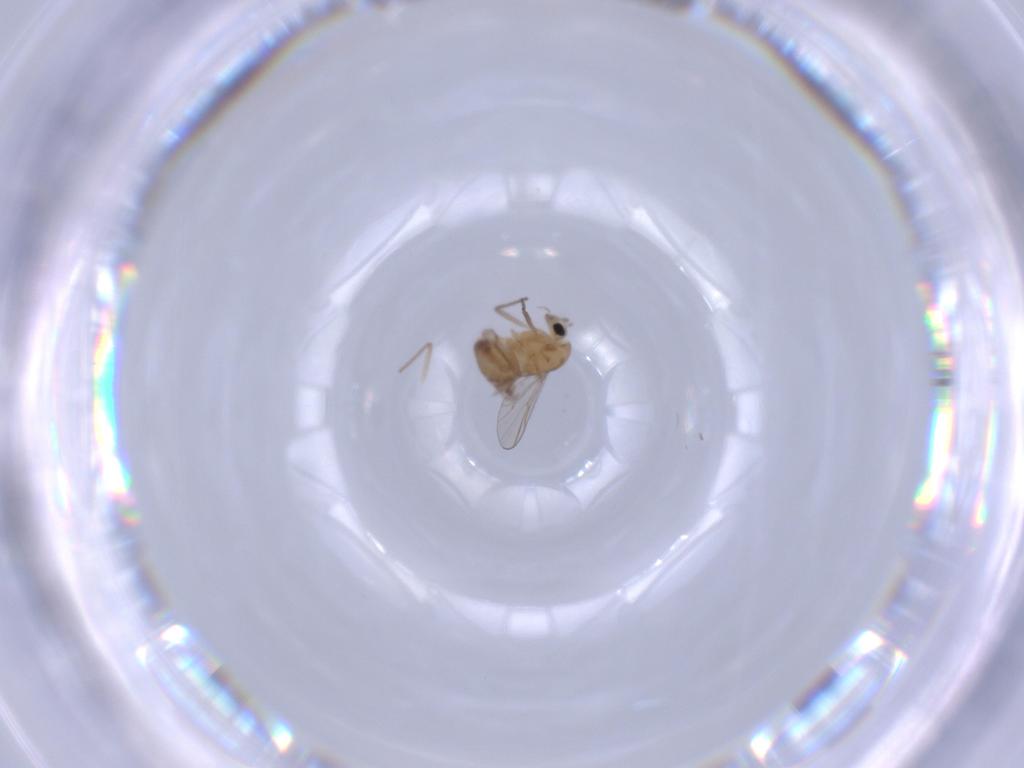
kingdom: Animalia
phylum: Arthropoda
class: Insecta
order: Diptera
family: Chironomidae
